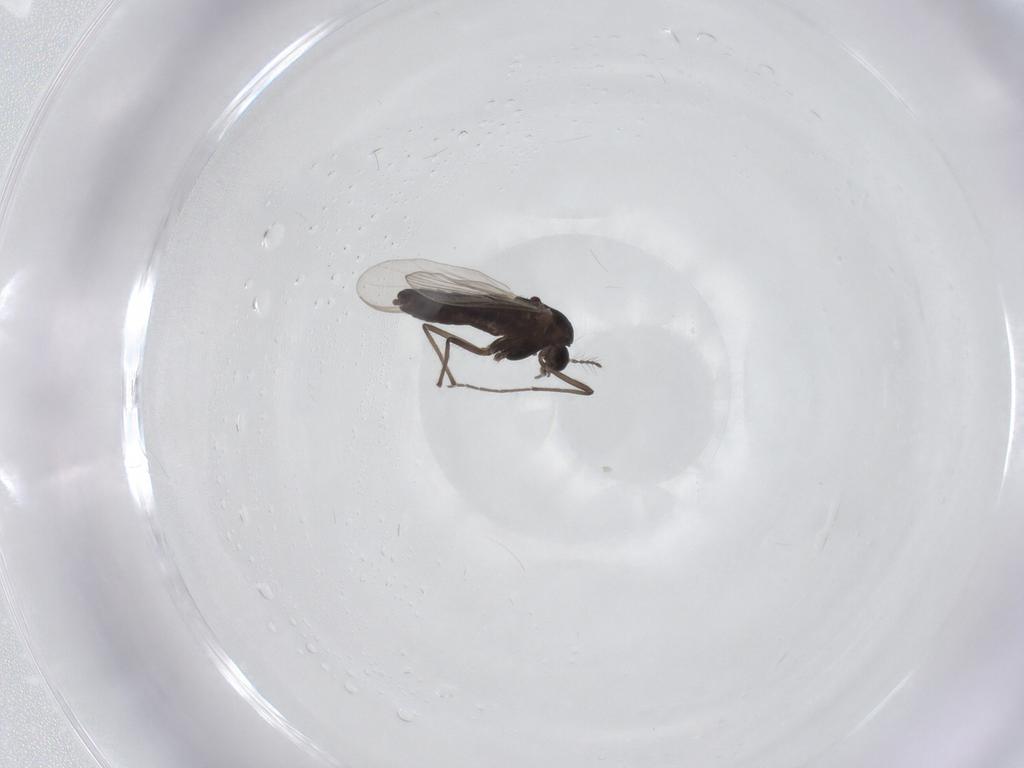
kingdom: Animalia
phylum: Arthropoda
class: Insecta
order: Diptera
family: Chironomidae
